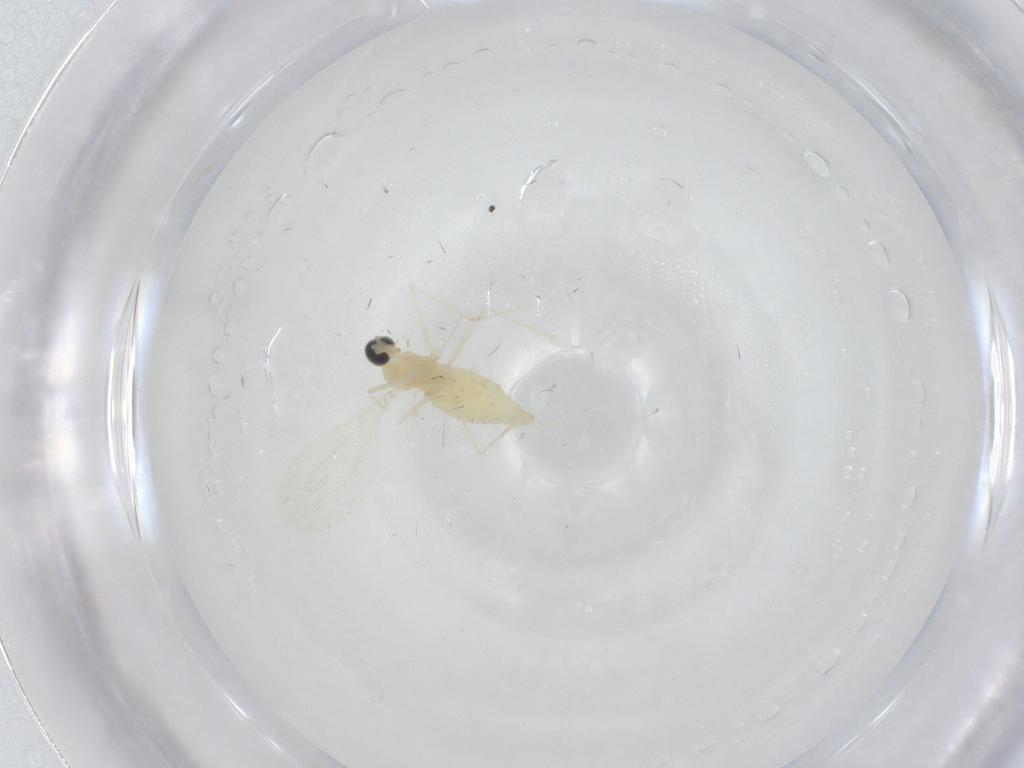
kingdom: Animalia
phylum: Arthropoda
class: Insecta
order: Diptera
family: Cecidomyiidae
